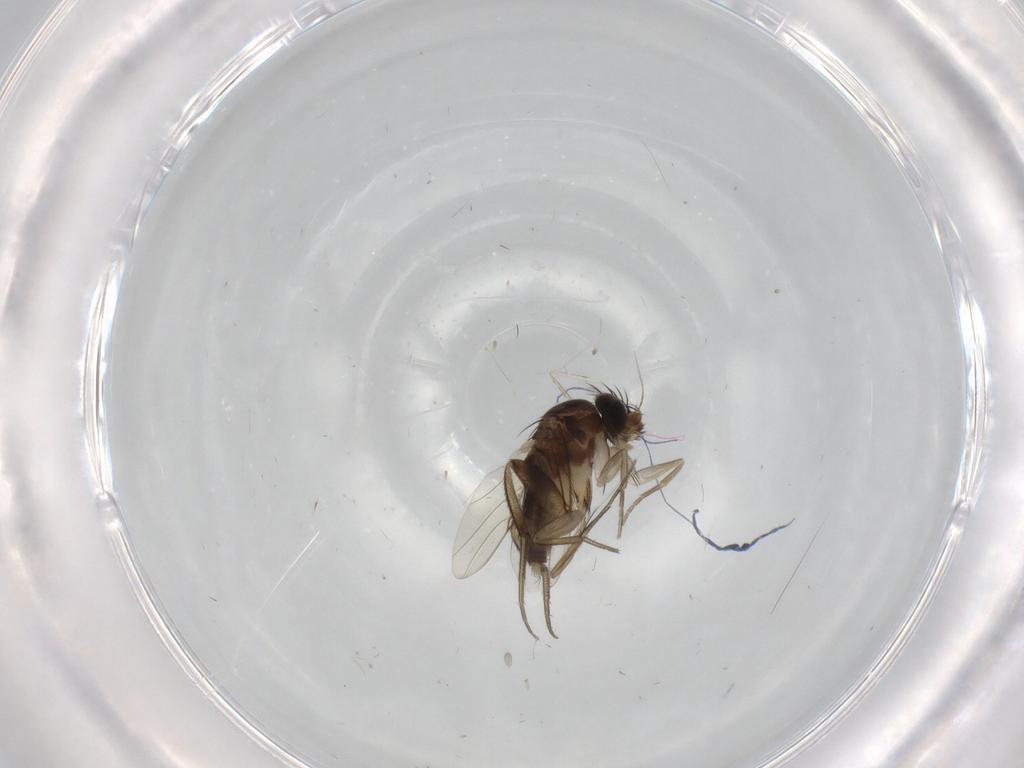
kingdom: Animalia
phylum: Arthropoda
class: Insecta
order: Diptera
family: Phoridae
